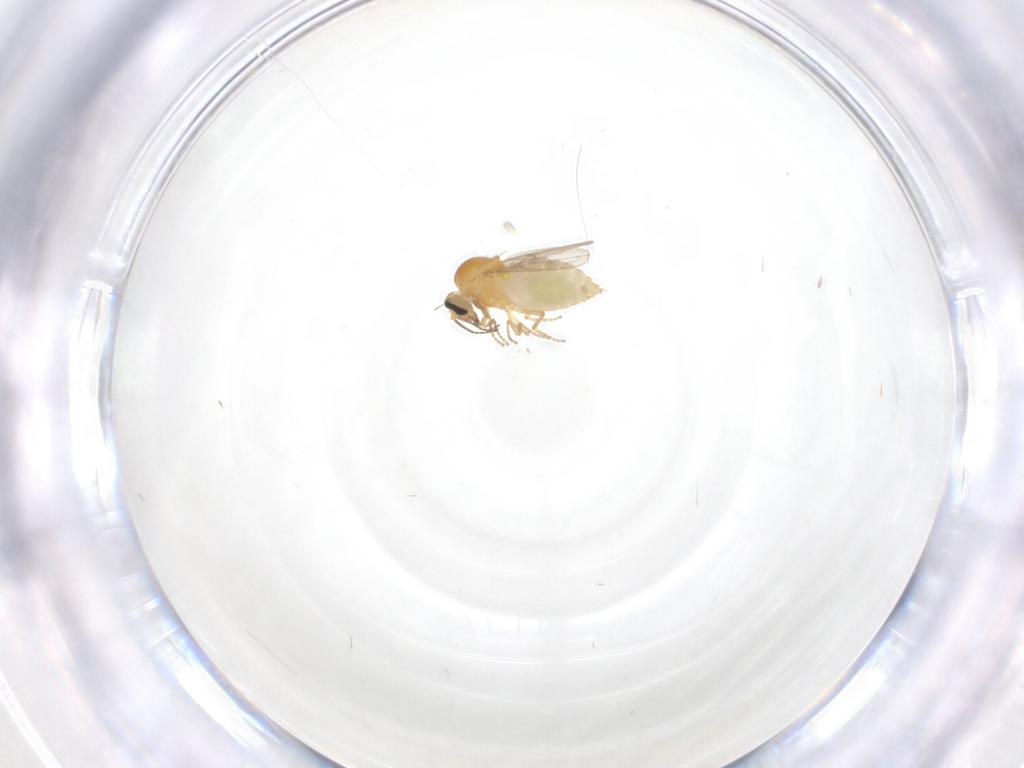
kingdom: Animalia
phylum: Arthropoda
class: Insecta
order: Diptera
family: Ceratopogonidae
